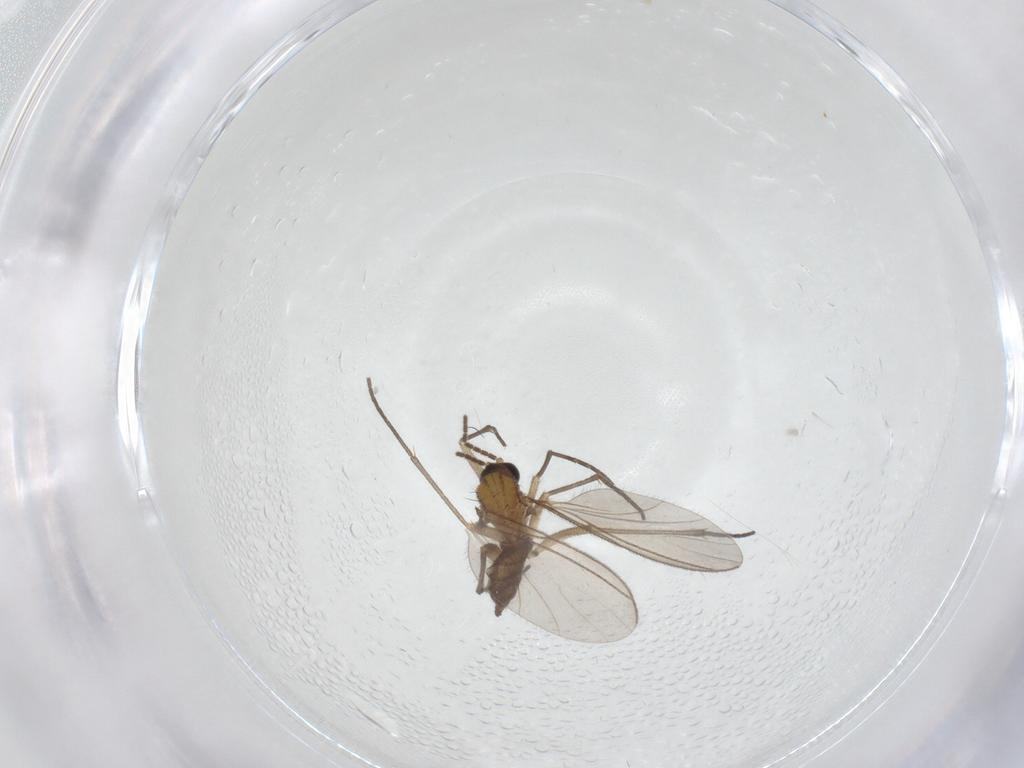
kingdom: Animalia
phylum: Arthropoda
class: Insecta
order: Diptera
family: Sciaridae
